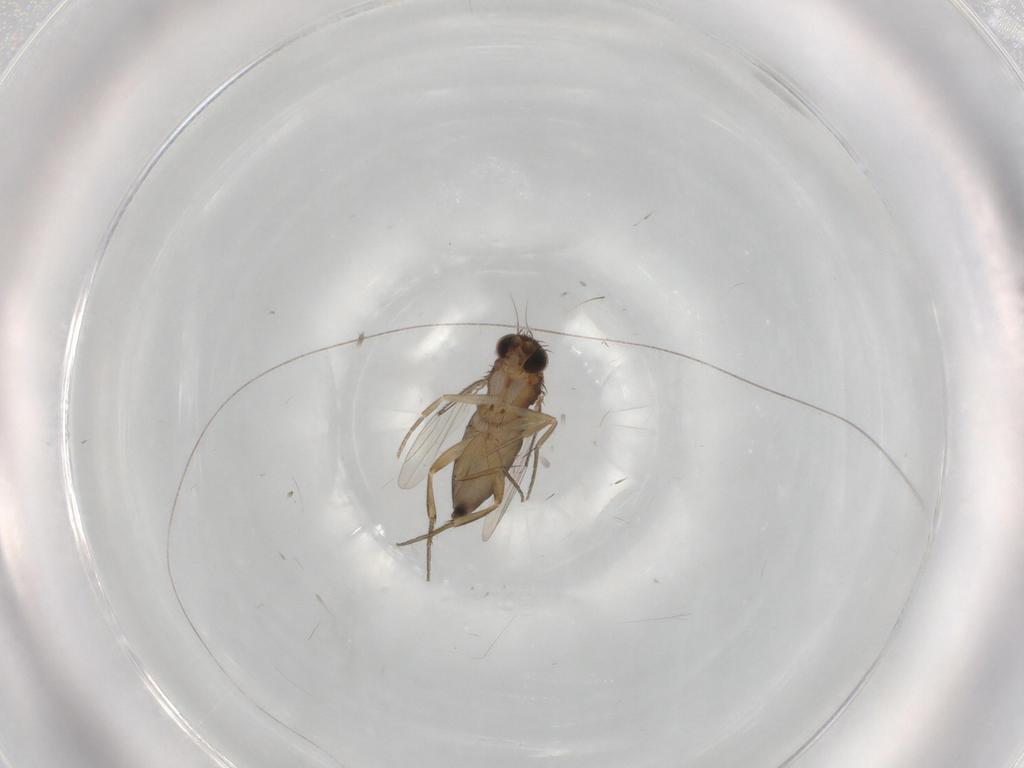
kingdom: Animalia
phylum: Arthropoda
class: Insecta
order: Diptera
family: Phoridae
